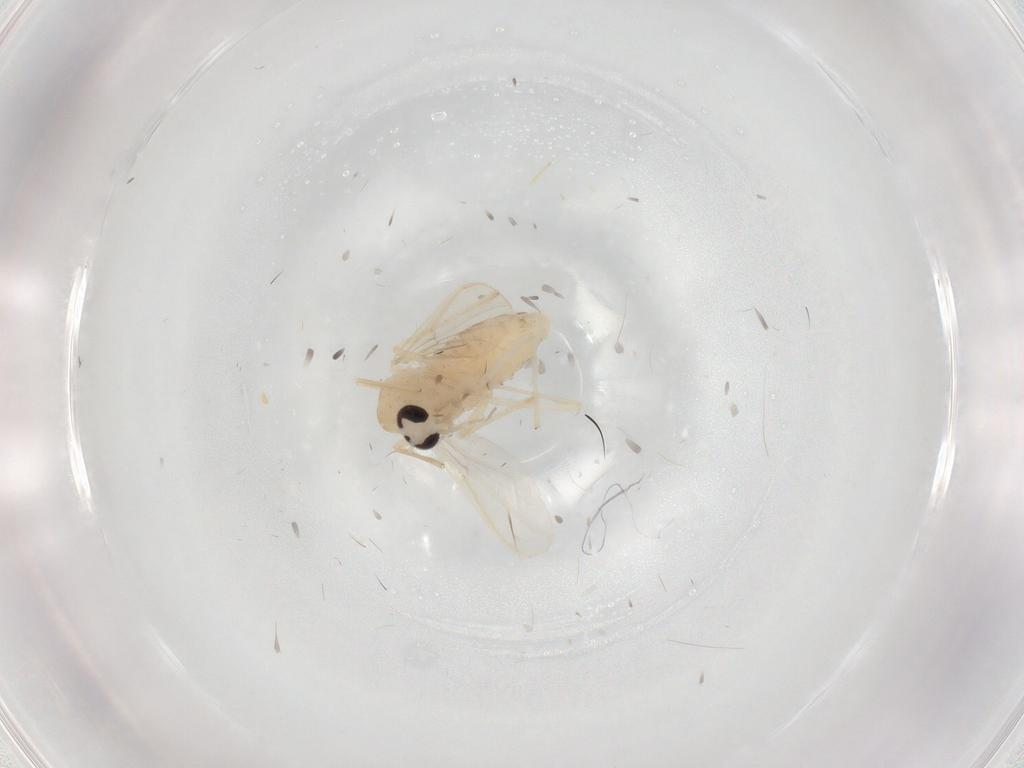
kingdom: Animalia
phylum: Arthropoda
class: Insecta
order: Diptera
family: Chironomidae
